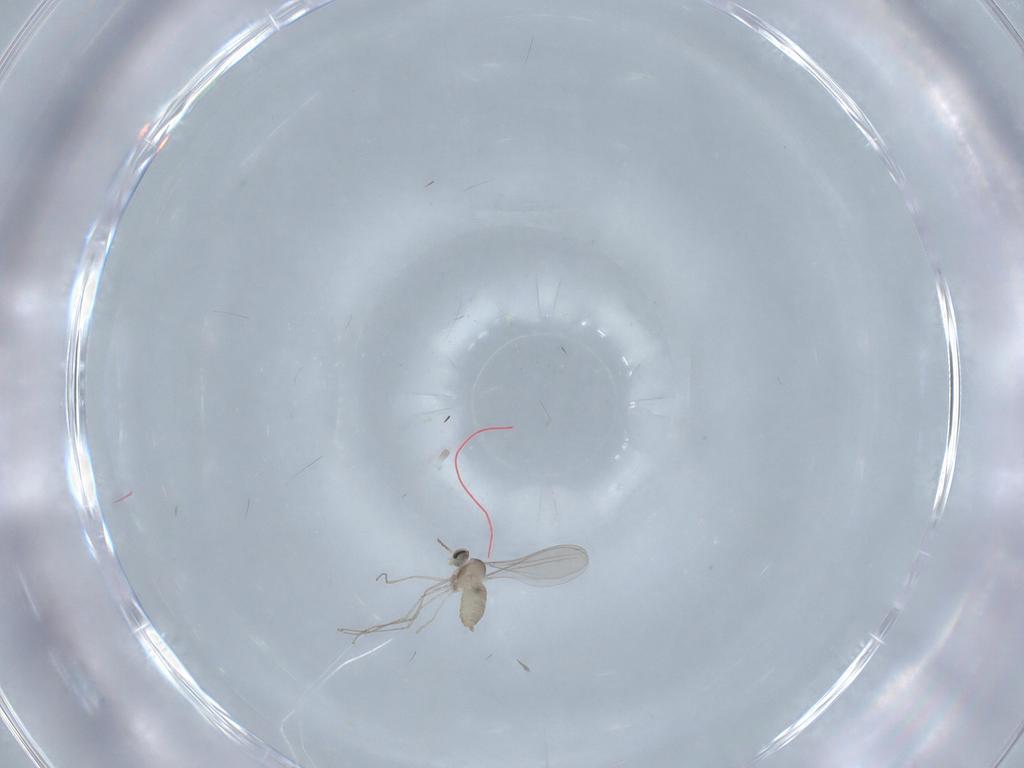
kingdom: Animalia
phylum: Arthropoda
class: Insecta
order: Diptera
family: Cecidomyiidae
